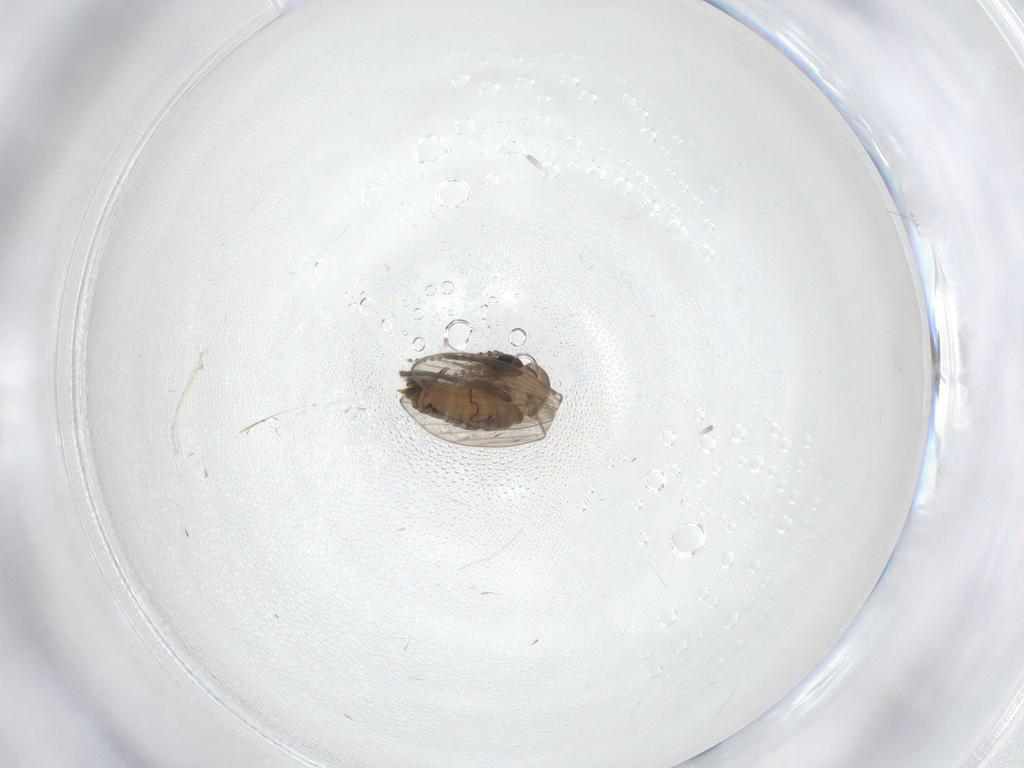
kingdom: Animalia
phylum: Arthropoda
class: Insecta
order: Diptera
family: Psychodidae
